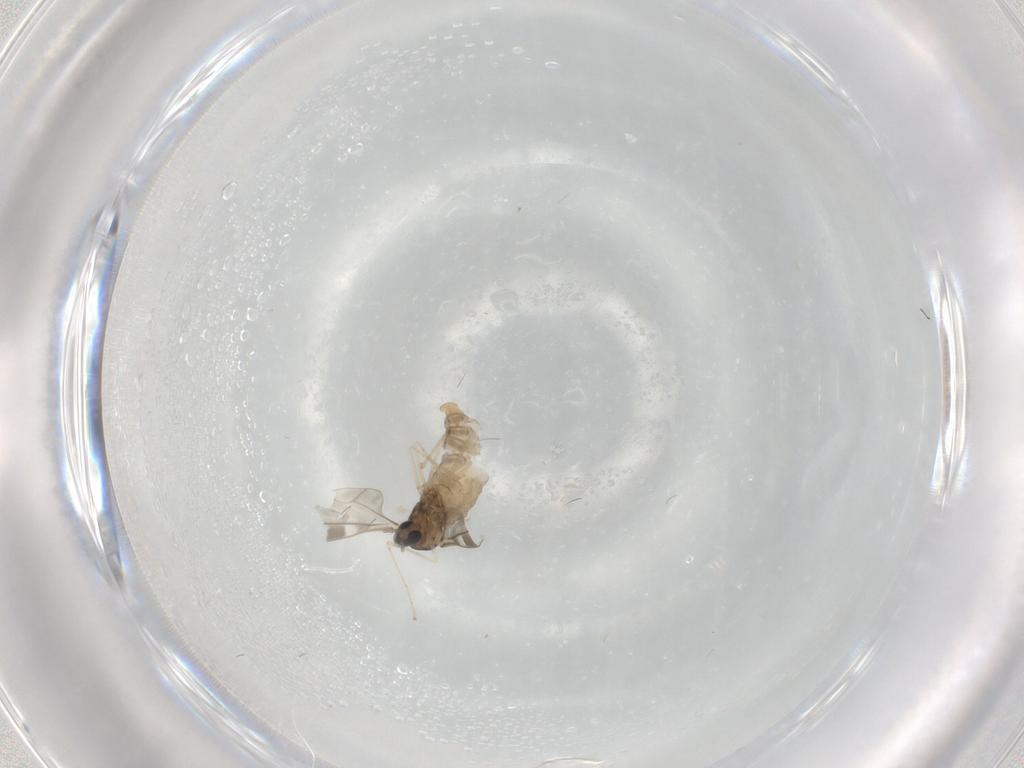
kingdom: Animalia
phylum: Arthropoda
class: Insecta
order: Diptera
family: Cecidomyiidae
